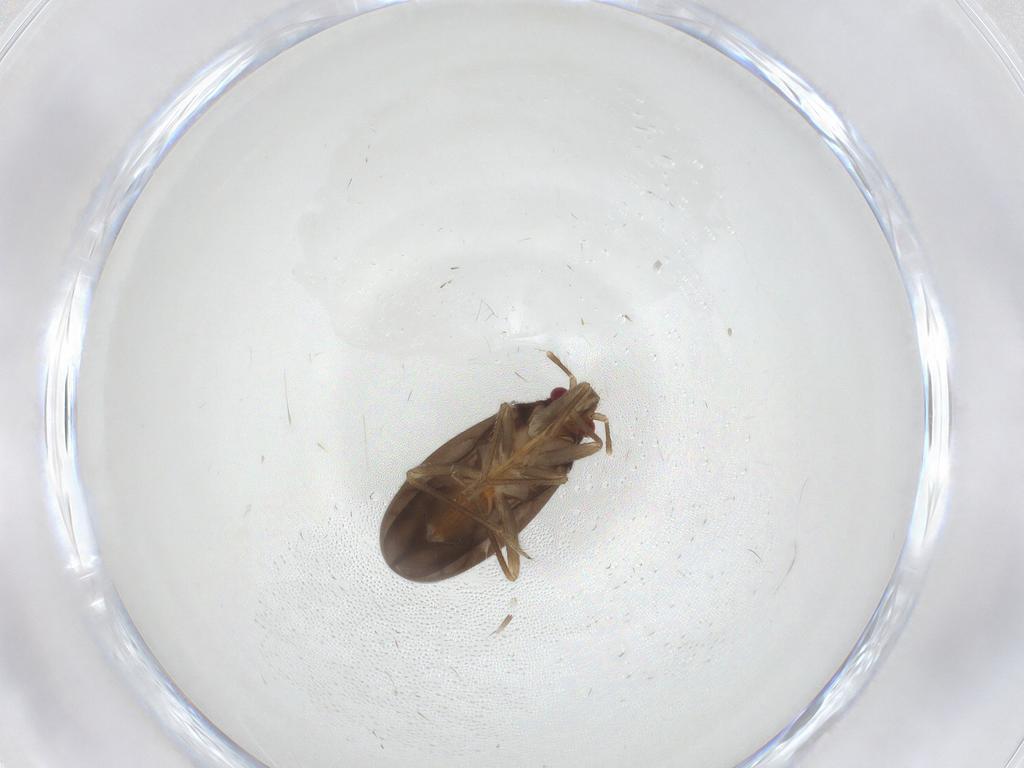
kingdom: Animalia
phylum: Arthropoda
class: Insecta
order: Hemiptera
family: Ceratocombidae
